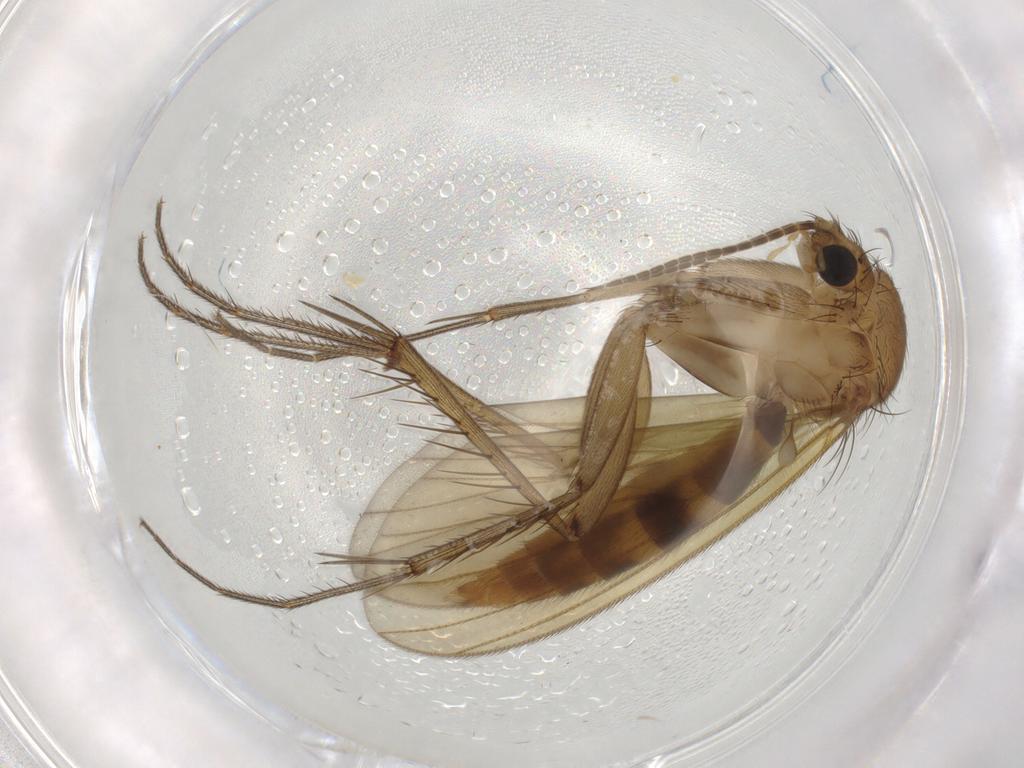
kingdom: Animalia
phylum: Arthropoda
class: Insecta
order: Diptera
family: Mycetophilidae
